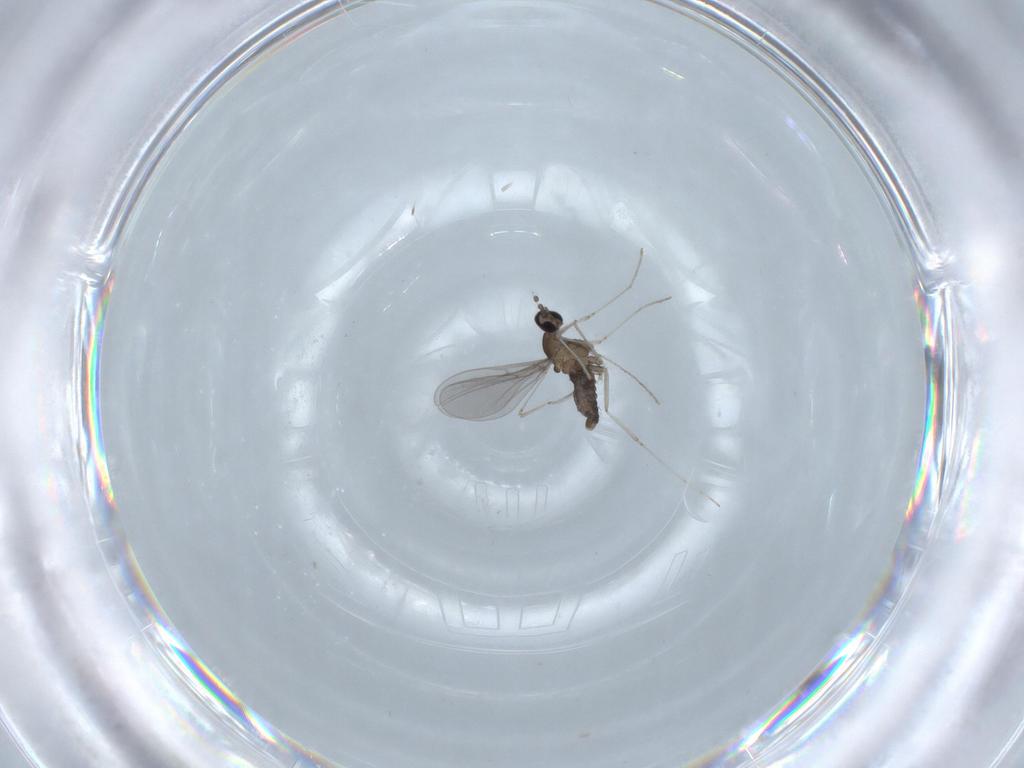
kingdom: Animalia
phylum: Arthropoda
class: Insecta
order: Diptera
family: Cecidomyiidae
